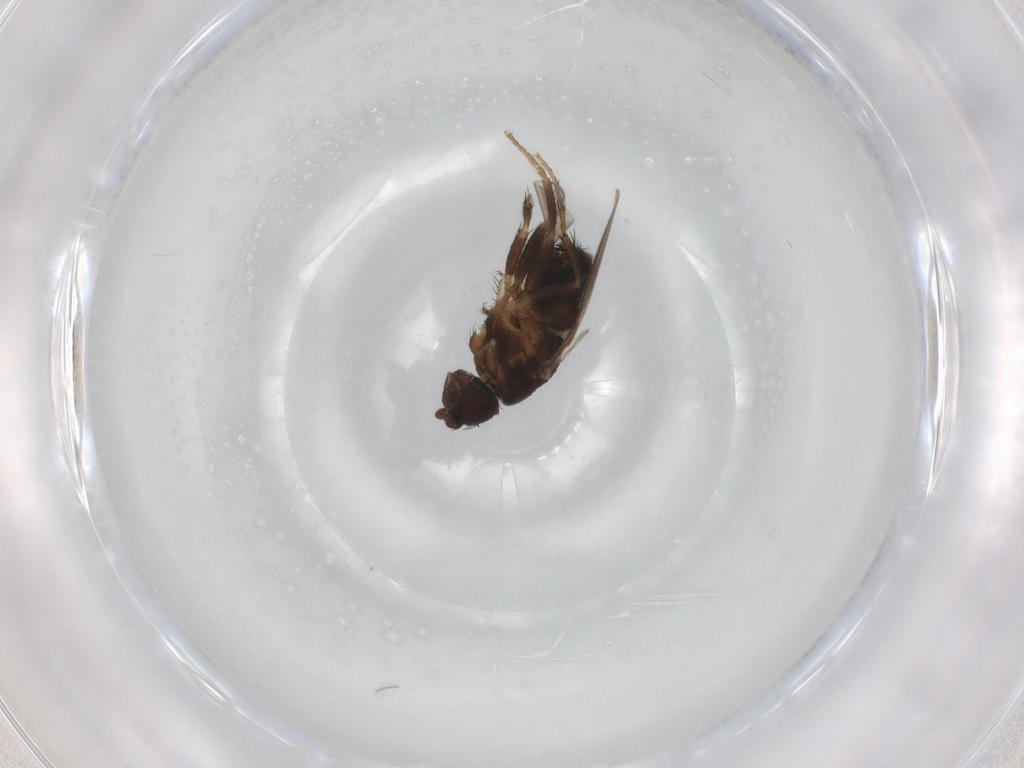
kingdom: Animalia
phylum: Arthropoda
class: Insecta
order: Diptera
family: Sphaeroceridae
